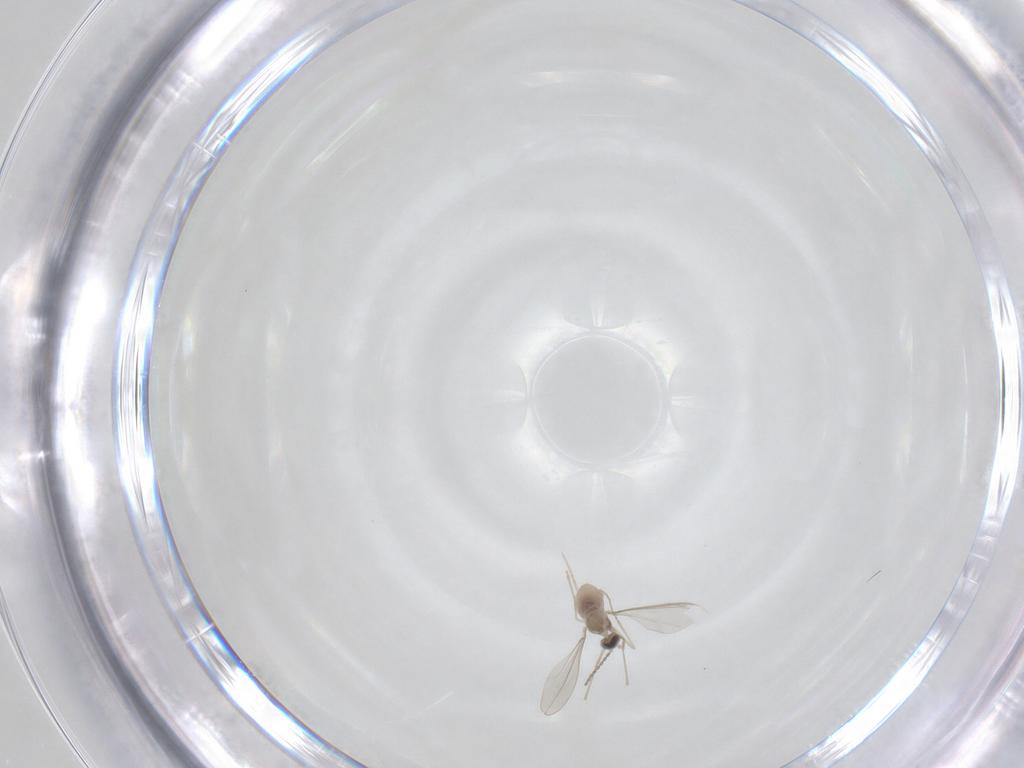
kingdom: Animalia
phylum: Arthropoda
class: Insecta
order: Diptera
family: Cecidomyiidae
